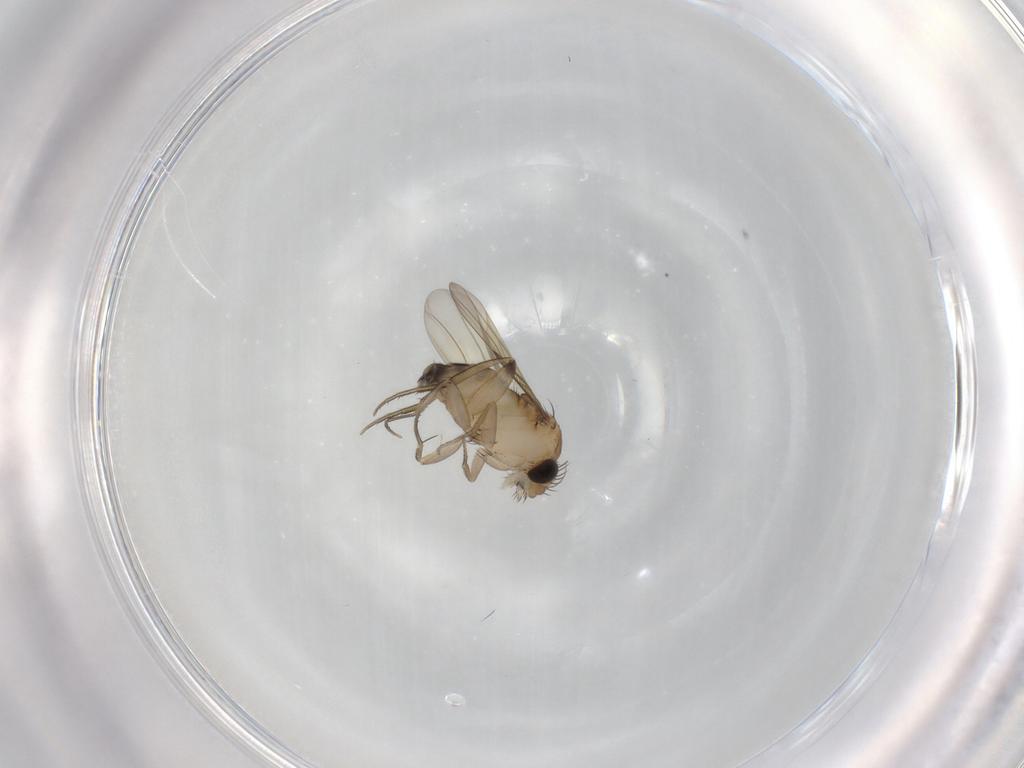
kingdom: Animalia
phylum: Arthropoda
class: Insecta
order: Diptera
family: Phoridae
